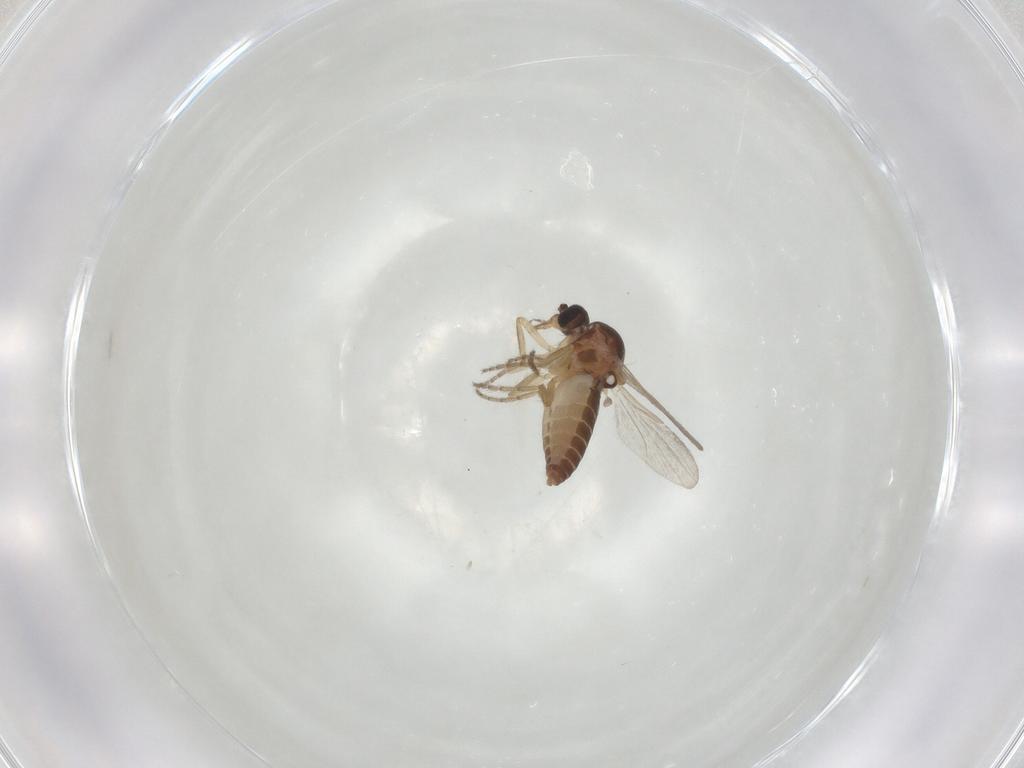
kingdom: Animalia
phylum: Arthropoda
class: Insecta
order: Diptera
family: Ceratopogonidae
